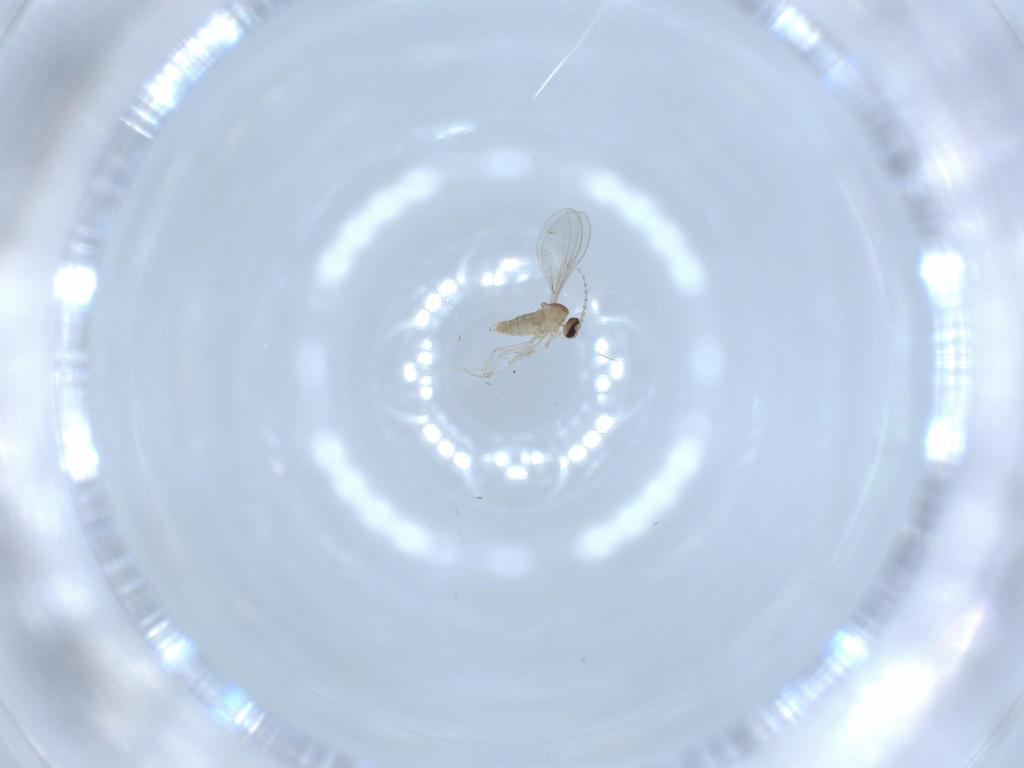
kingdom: Animalia
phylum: Arthropoda
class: Insecta
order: Diptera
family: Cecidomyiidae
